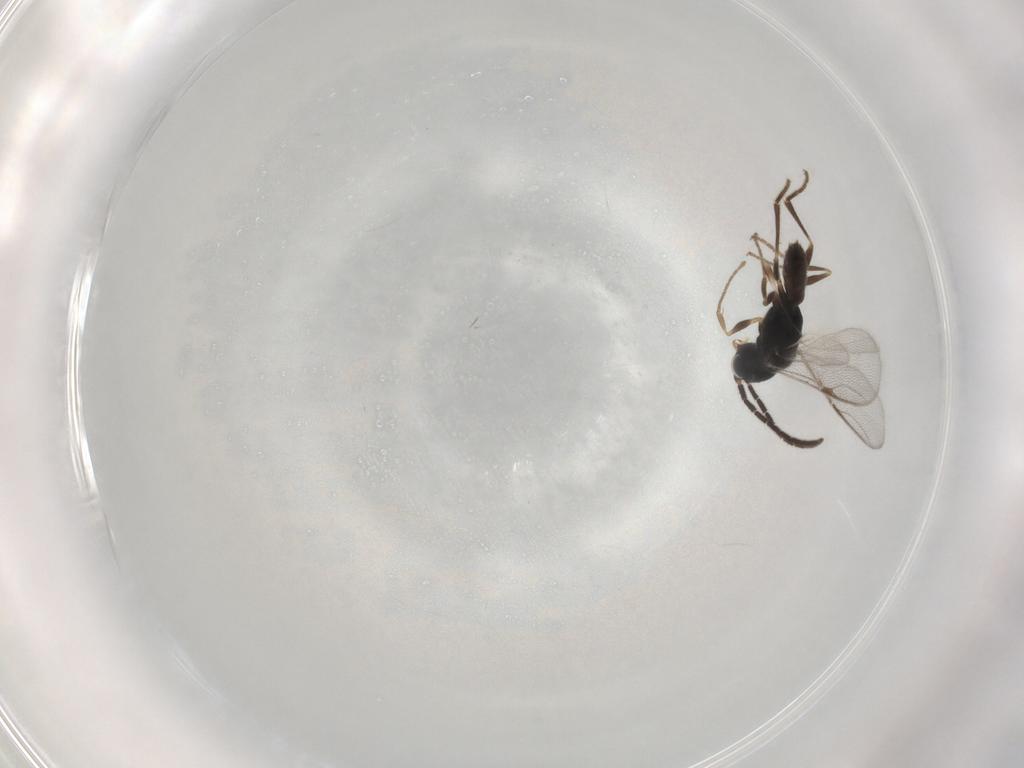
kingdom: Animalia
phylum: Arthropoda
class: Insecta
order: Hymenoptera
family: Dryinidae
